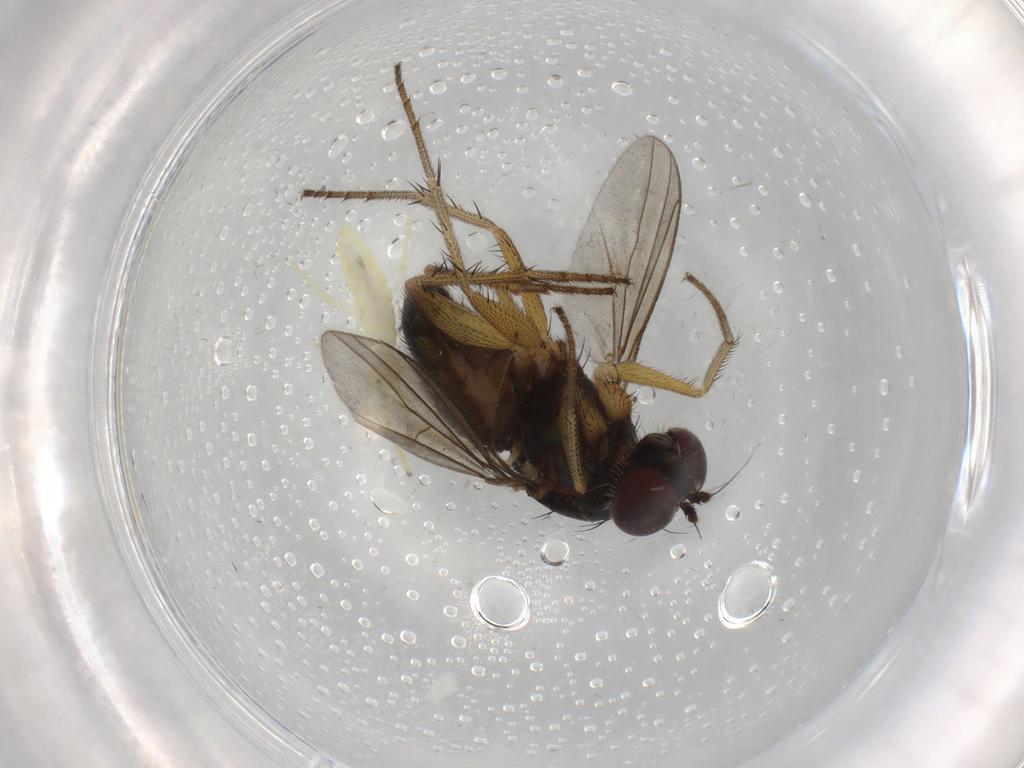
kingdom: Animalia
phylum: Arthropoda
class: Insecta
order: Diptera
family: Dolichopodidae
